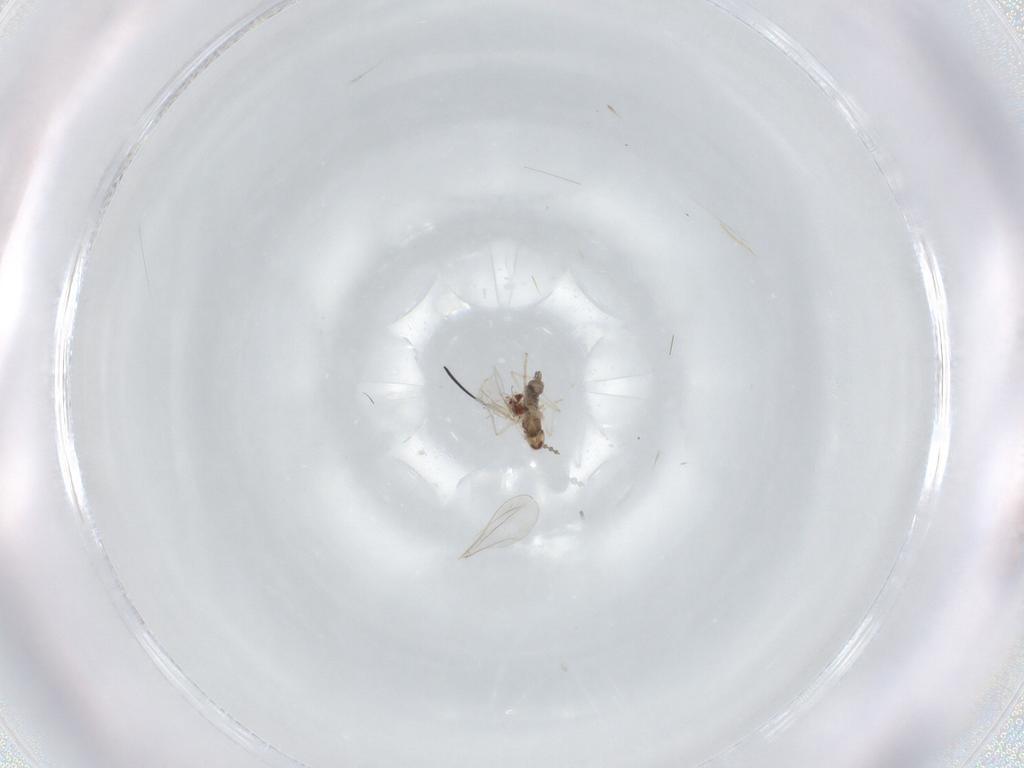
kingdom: Animalia
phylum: Arthropoda
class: Insecta
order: Diptera
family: Cecidomyiidae
